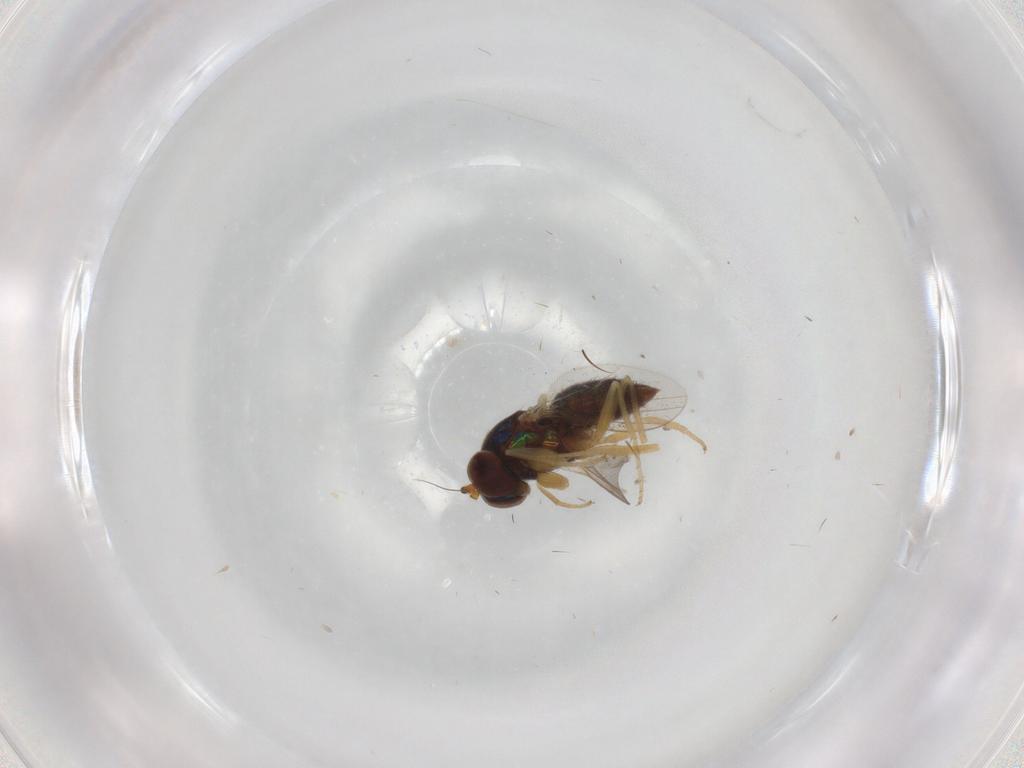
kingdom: Animalia
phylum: Arthropoda
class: Insecta
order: Diptera
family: Dolichopodidae
